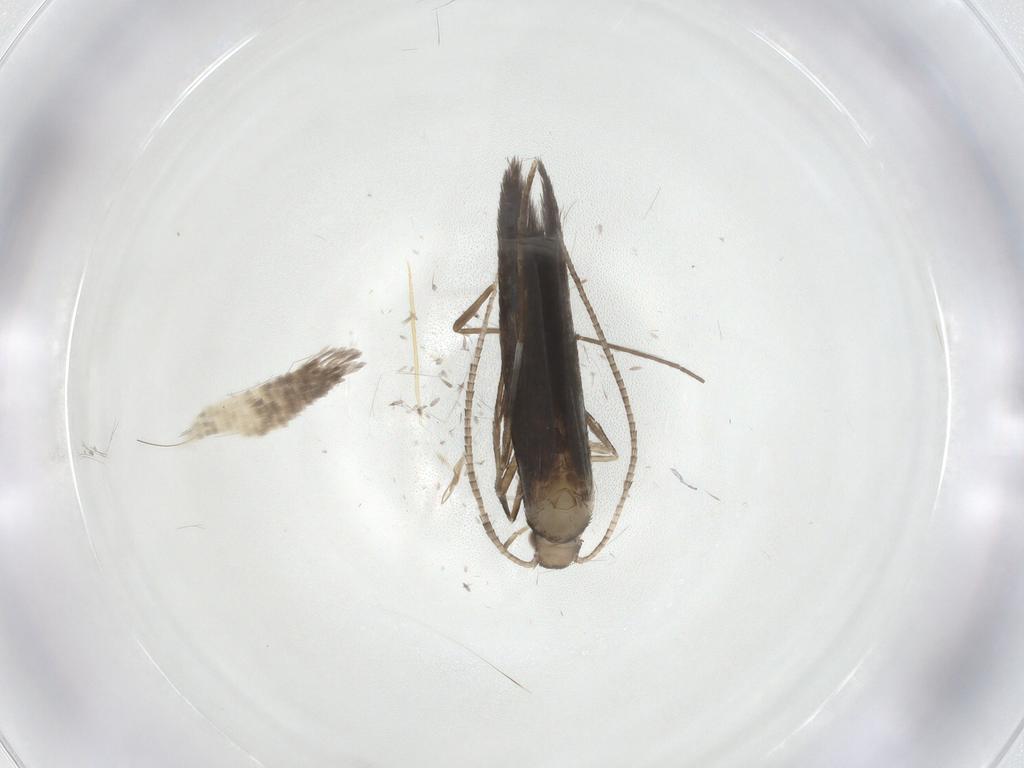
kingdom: Animalia
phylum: Arthropoda
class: Insecta
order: Lepidoptera
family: Gracillariidae
